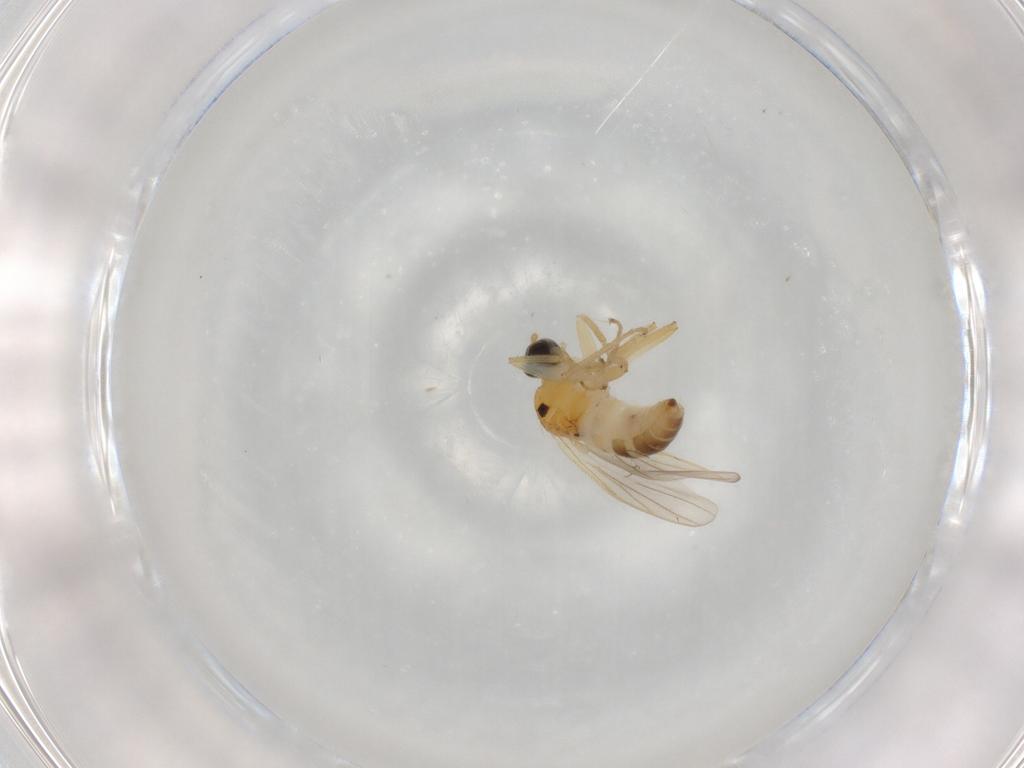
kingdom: Animalia
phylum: Arthropoda
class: Insecta
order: Diptera
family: Hybotidae
